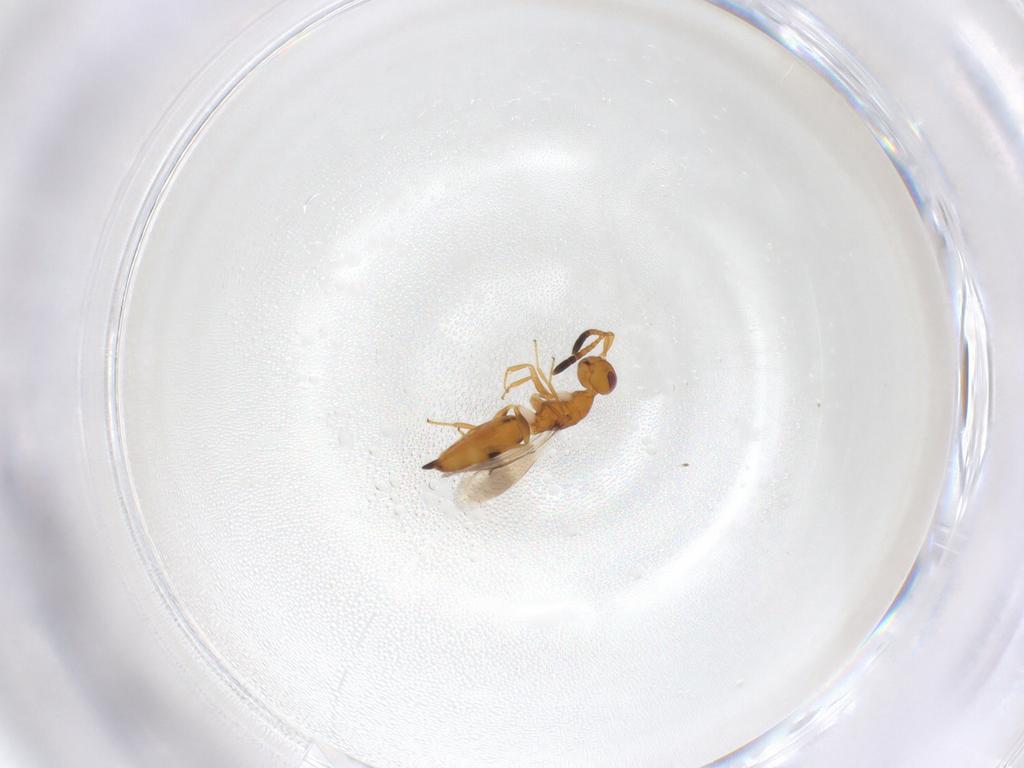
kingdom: Animalia
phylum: Arthropoda
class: Insecta
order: Hymenoptera
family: Cerocephalidae
